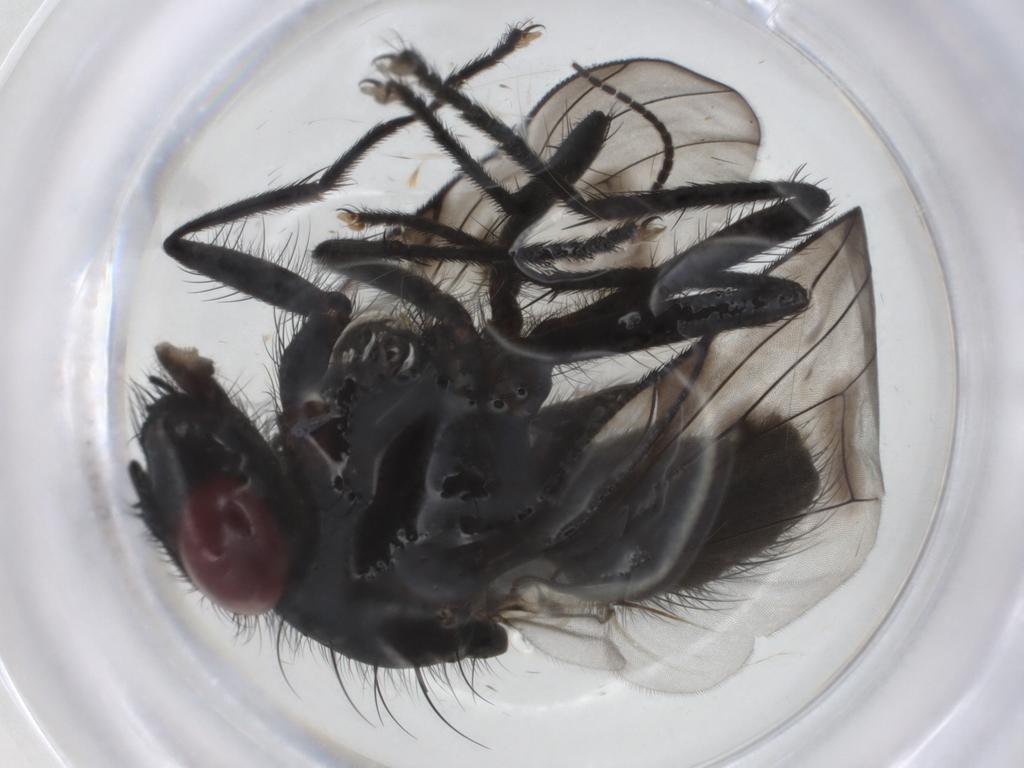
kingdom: Animalia
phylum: Arthropoda
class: Insecta
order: Diptera
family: Muscidae
